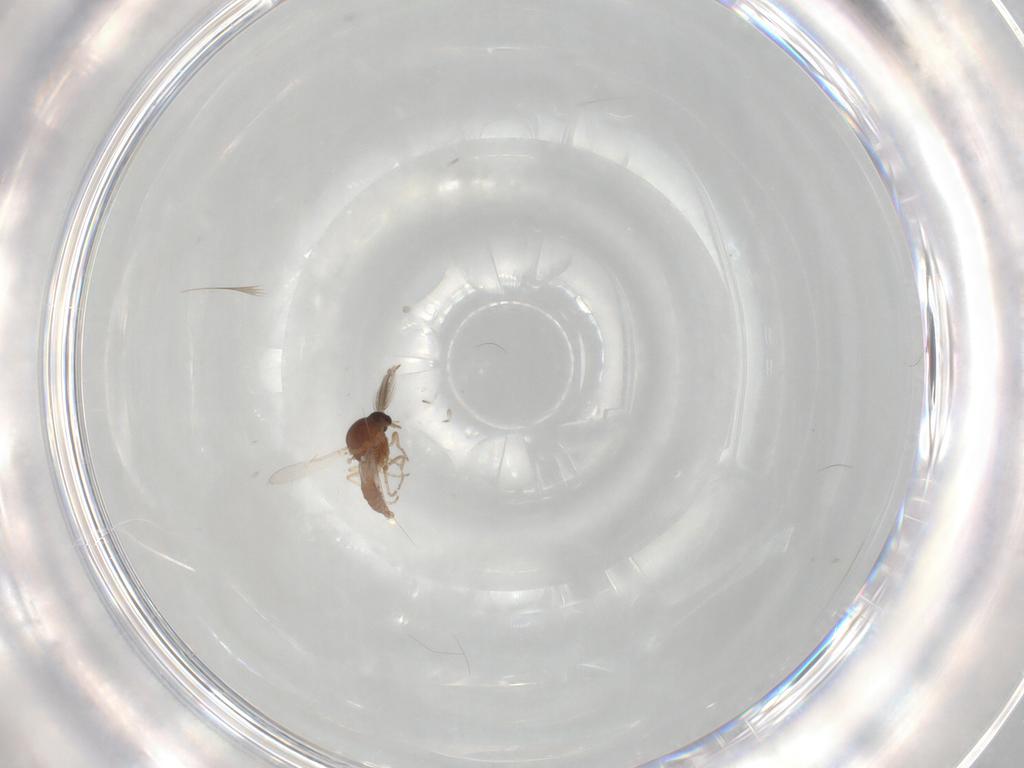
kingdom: Animalia
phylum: Arthropoda
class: Insecta
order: Diptera
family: Ceratopogonidae
